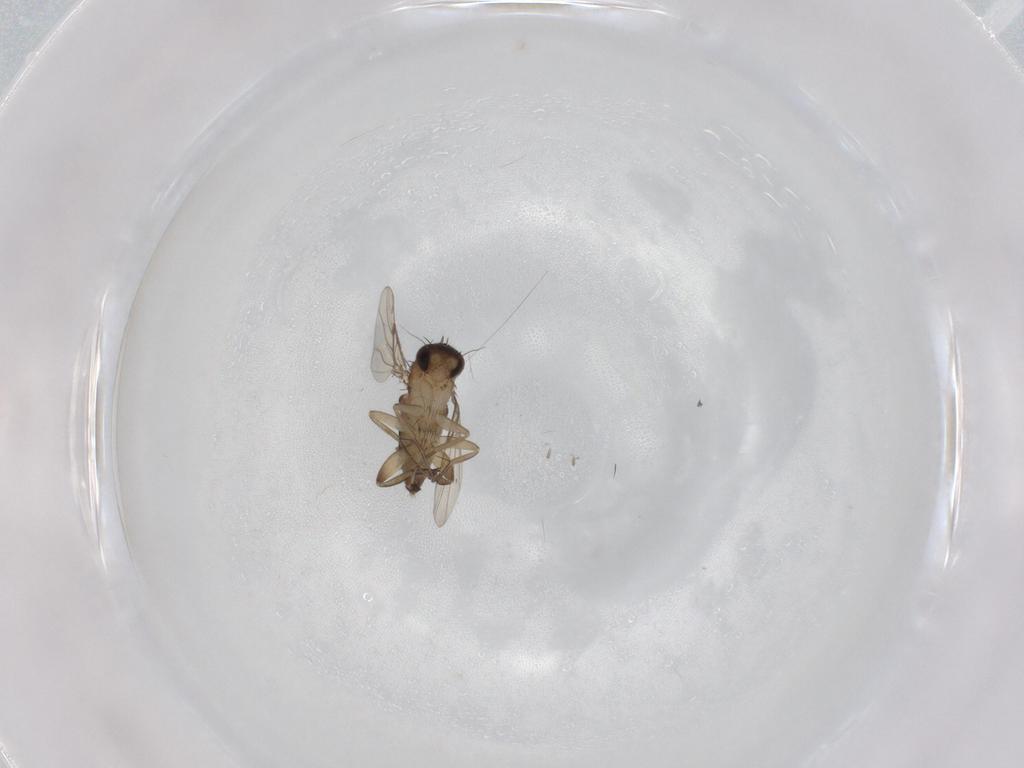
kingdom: Animalia
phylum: Arthropoda
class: Insecta
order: Diptera
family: Phoridae
